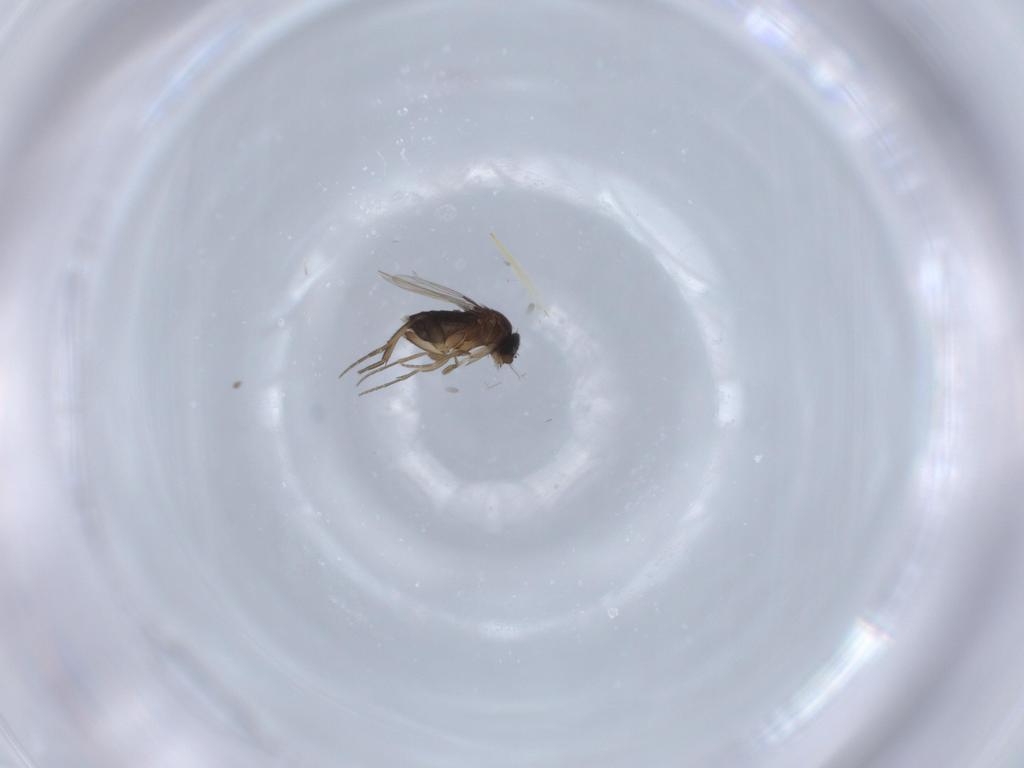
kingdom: Animalia
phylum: Arthropoda
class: Insecta
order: Diptera
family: Phoridae
